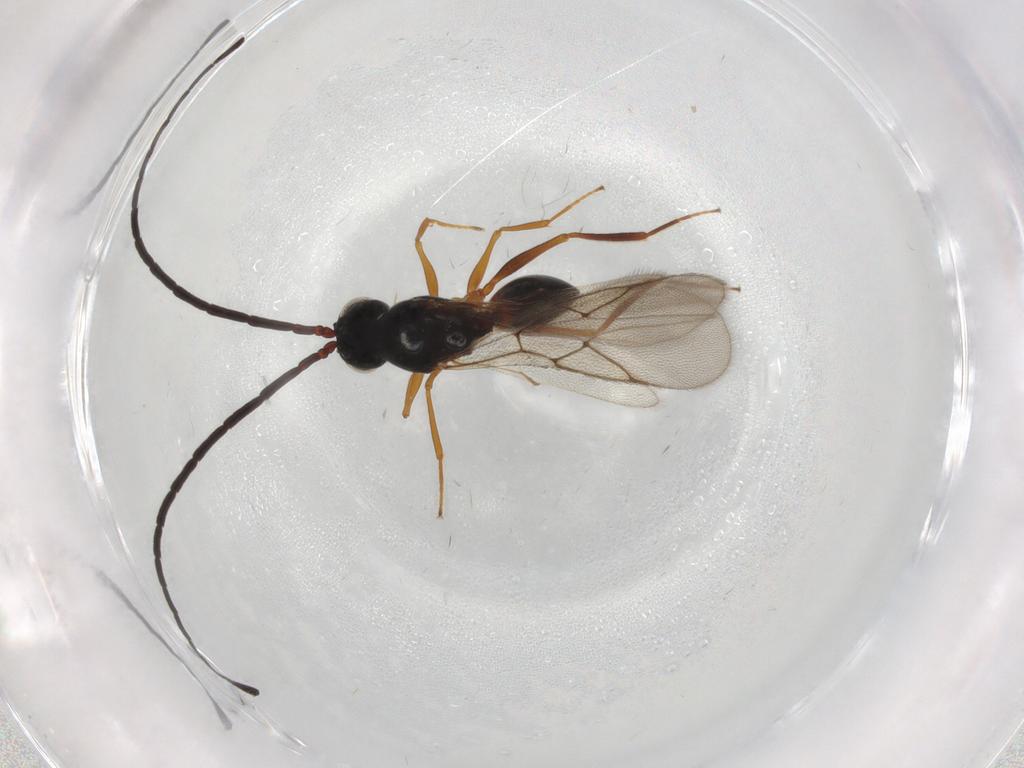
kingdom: Animalia
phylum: Arthropoda
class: Insecta
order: Hymenoptera
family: Figitidae
